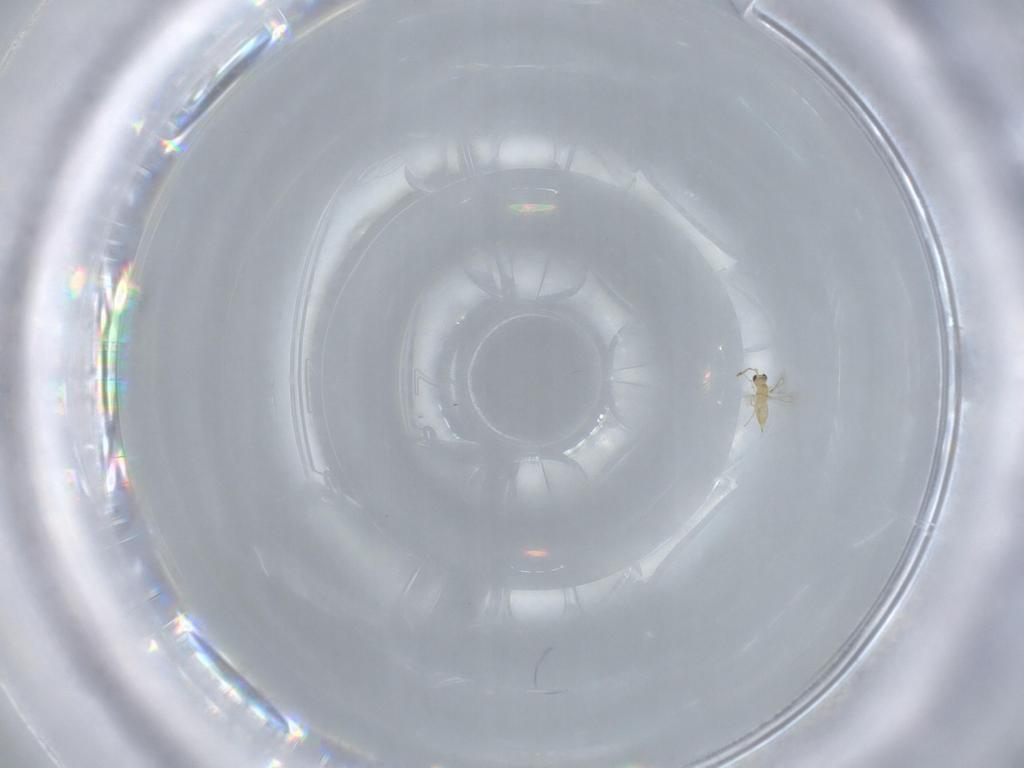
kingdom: Animalia
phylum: Arthropoda
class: Insecta
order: Hymenoptera
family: Mymaridae
